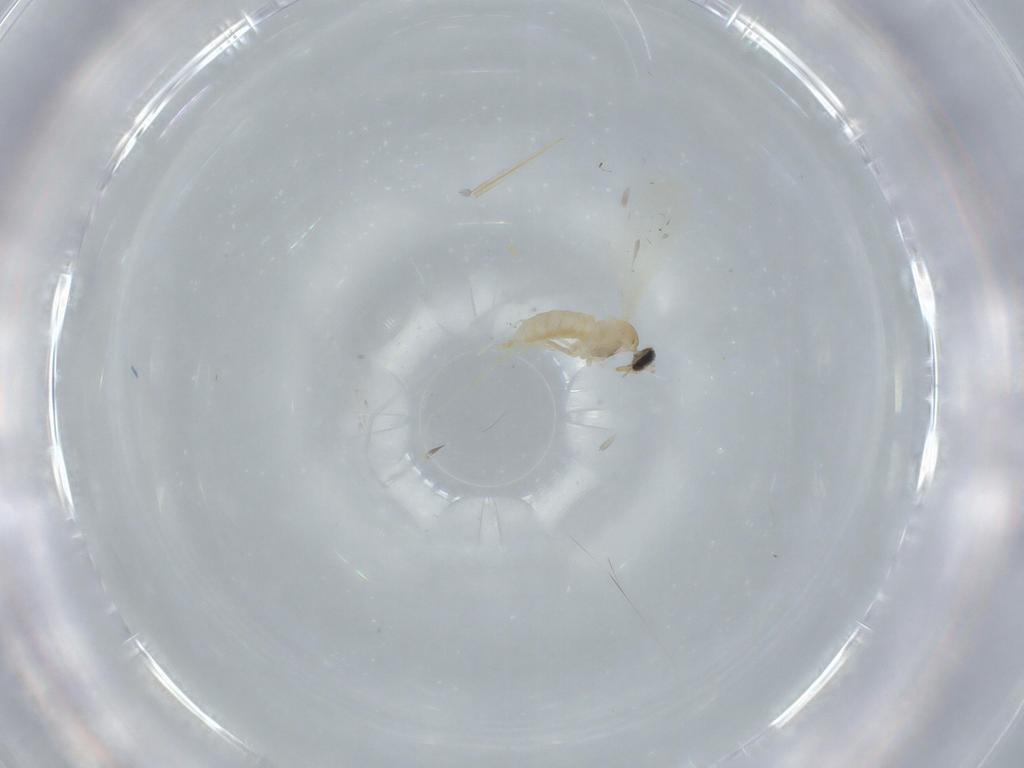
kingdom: Animalia
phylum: Arthropoda
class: Insecta
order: Diptera
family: Cecidomyiidae
